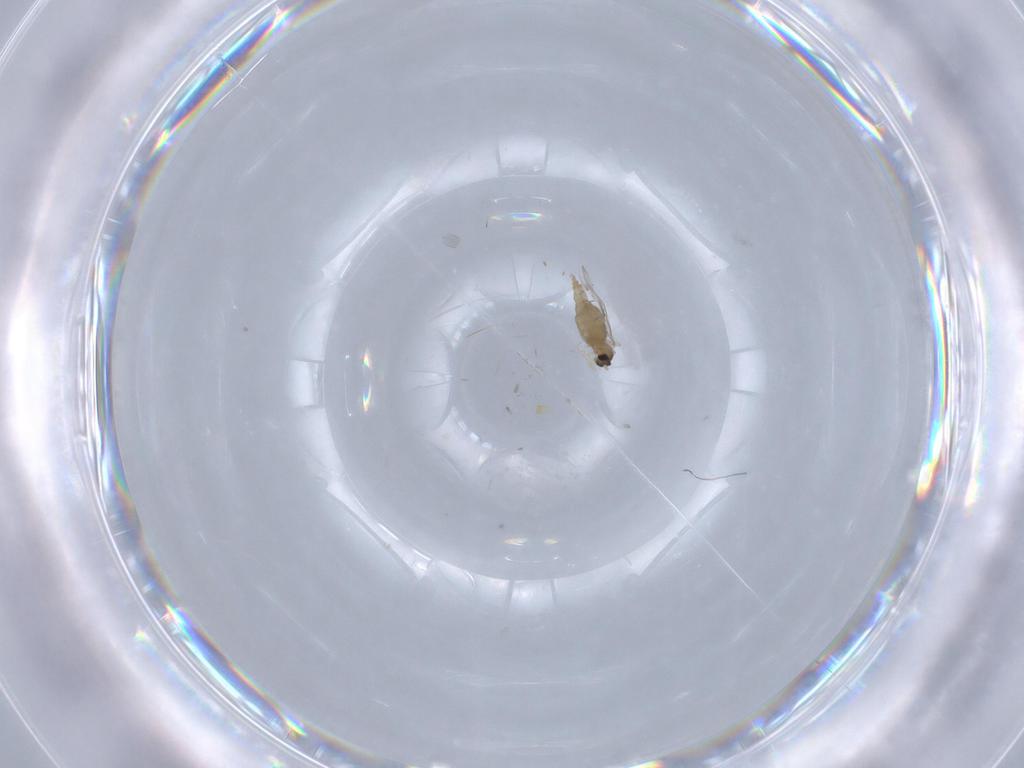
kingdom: Animalia
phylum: Arthropoda
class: Insecta
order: Diptera
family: Cecidomyiidae
